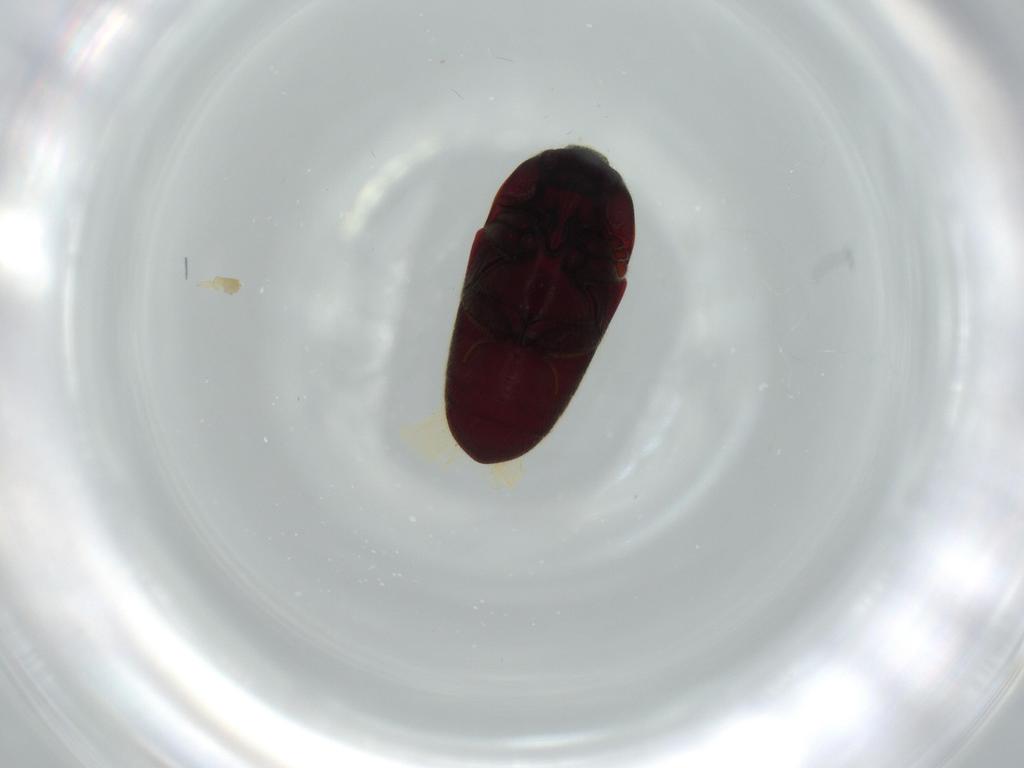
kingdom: Animalia
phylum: Arthropoda
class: Insecta
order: Coleoptera
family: Throscidae
